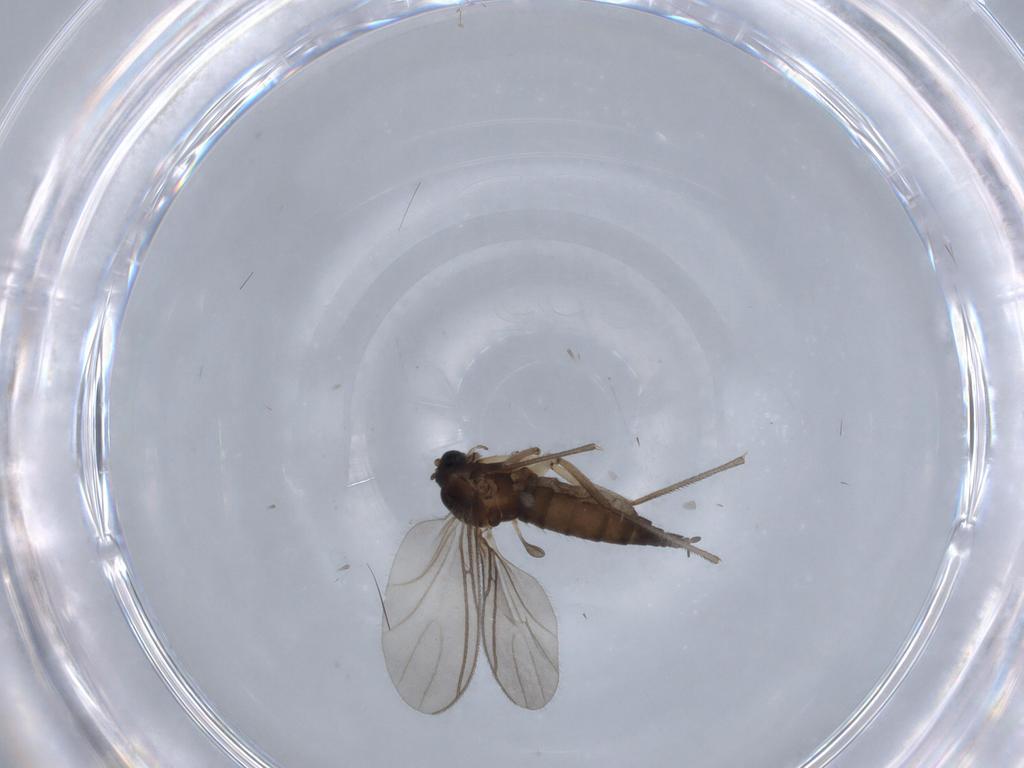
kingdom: Animalia
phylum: Arthropoda
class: Insecta
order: Diptera
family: Sciaridae
